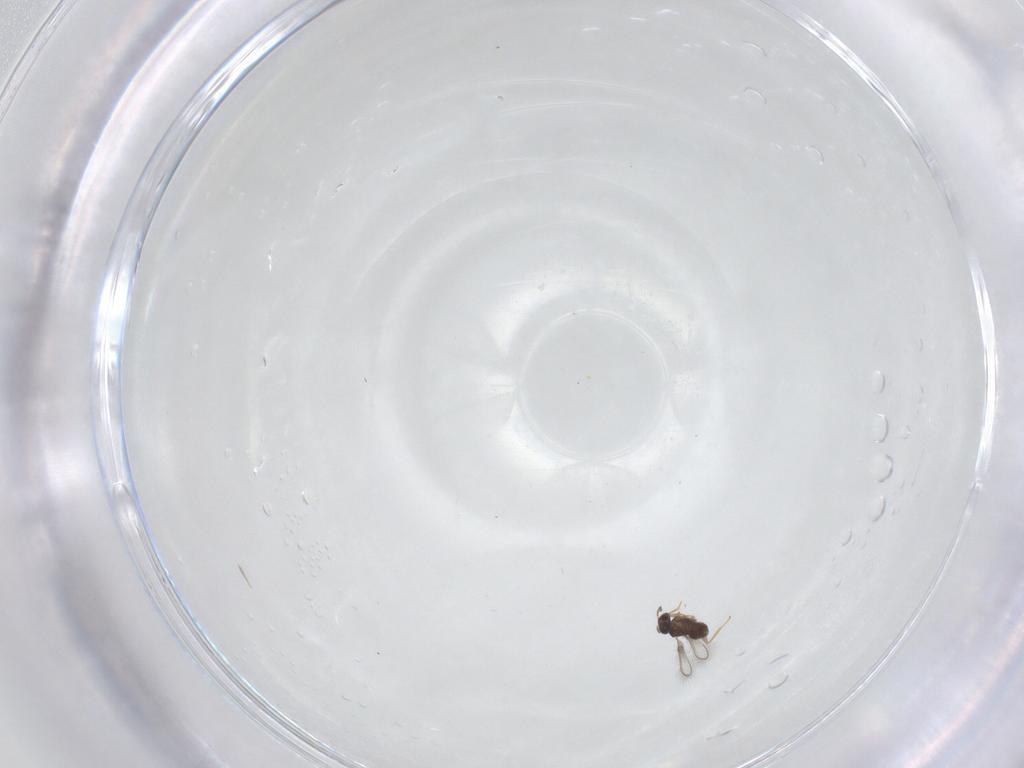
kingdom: Animalia
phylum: Arthropoda
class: Insecta
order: Hymenoptera
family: Mymaridae
